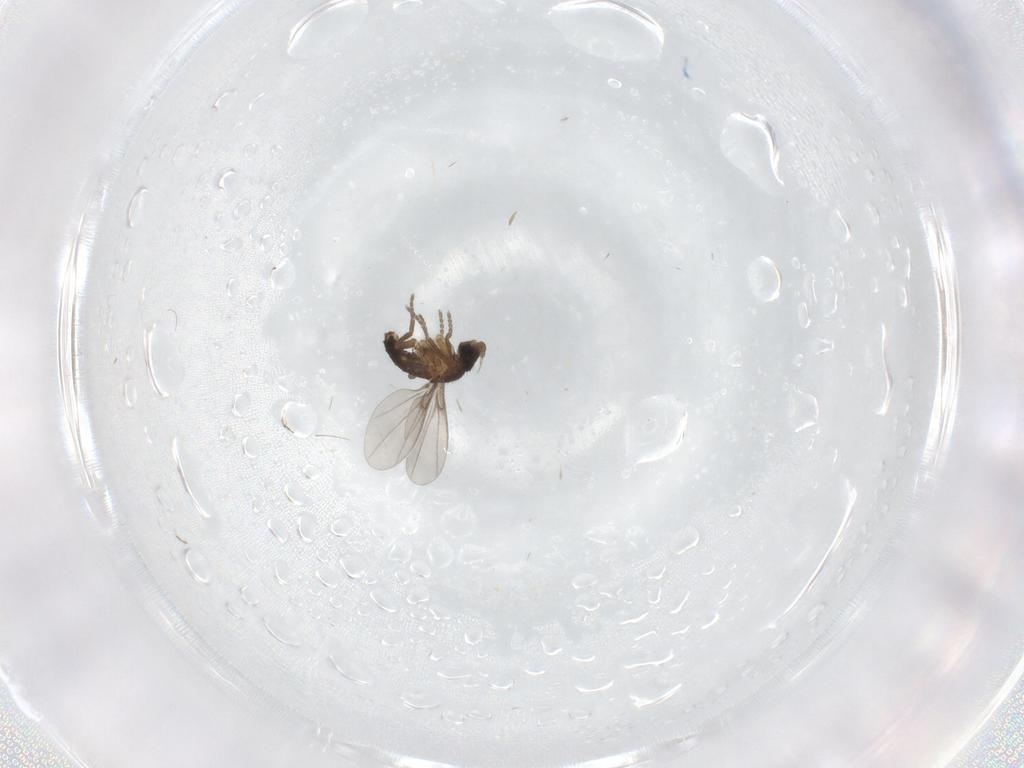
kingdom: Animalia
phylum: Arthropoda
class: Insecta
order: Diptera
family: Phoridae
